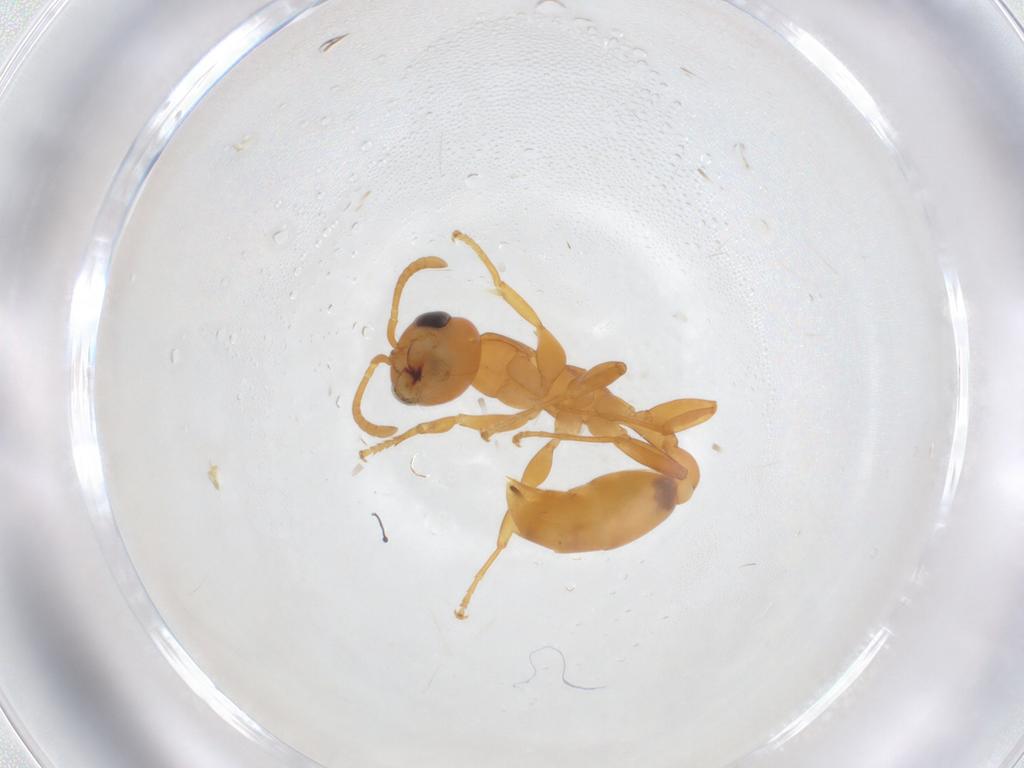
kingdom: Animalia
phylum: Arthropoda
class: Insecta
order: Hymenoptera
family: Formicidae
